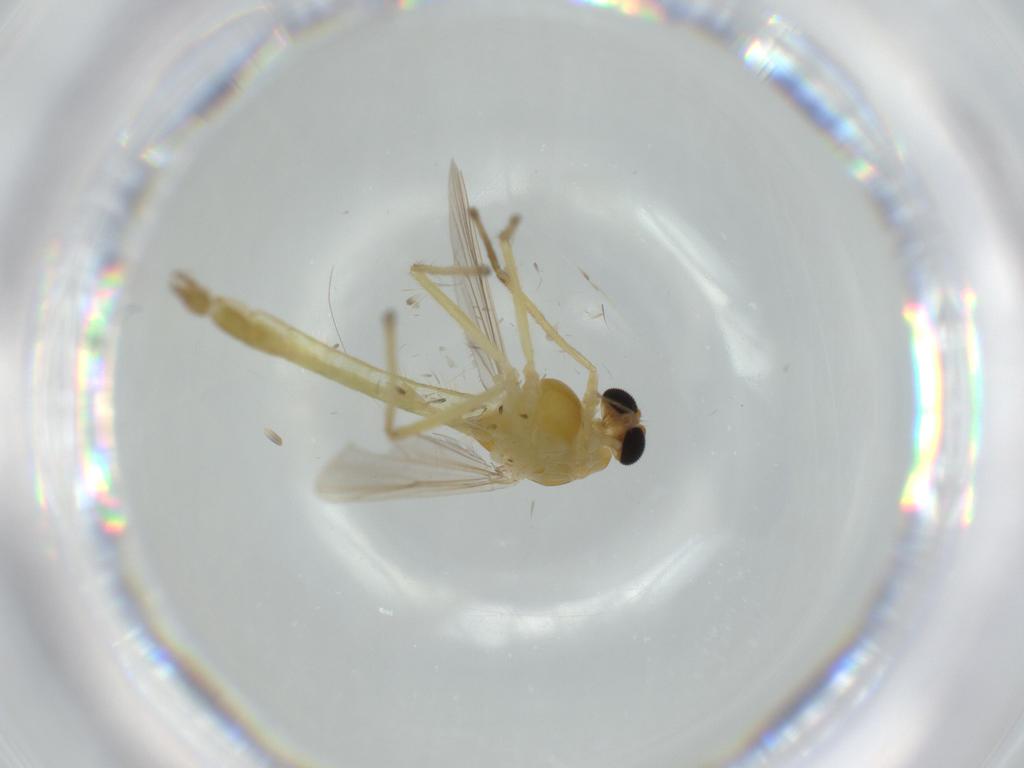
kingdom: Animalia
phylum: Arthropoda
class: Insecta
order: Diptera
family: Chironomidae
